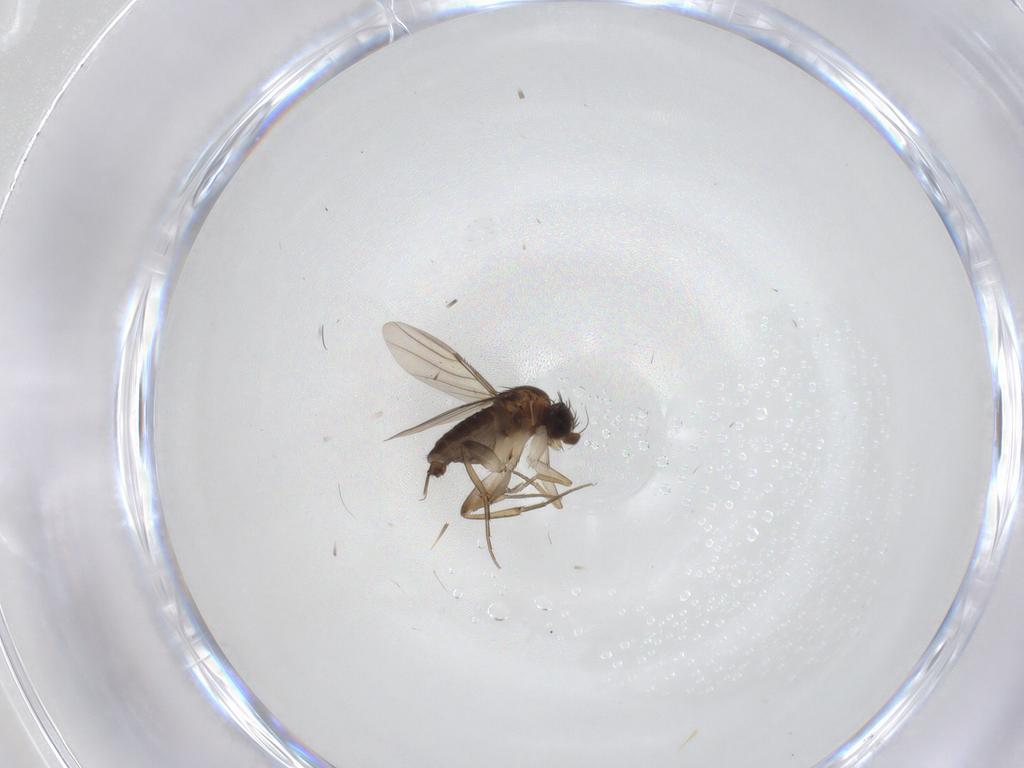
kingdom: Animalia
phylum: Arthropoda
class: Insecta
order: Diptera
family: Phoridae
